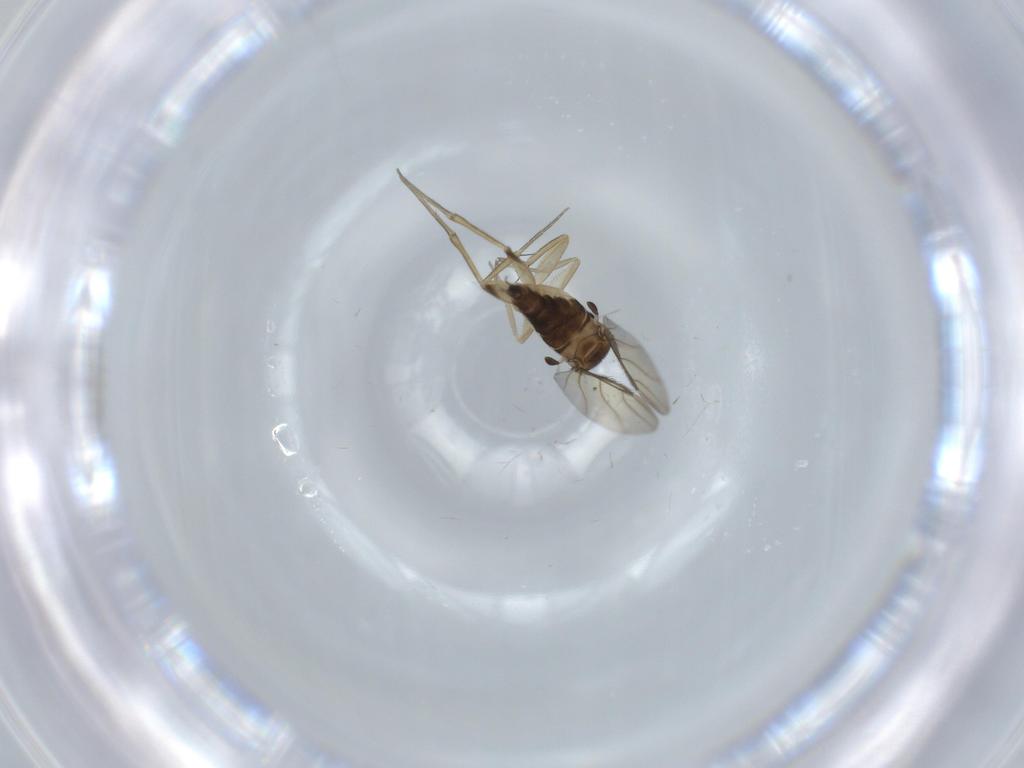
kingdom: Animalia
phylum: Arthropoda
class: Insecta
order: Diptera
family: Phoridae
